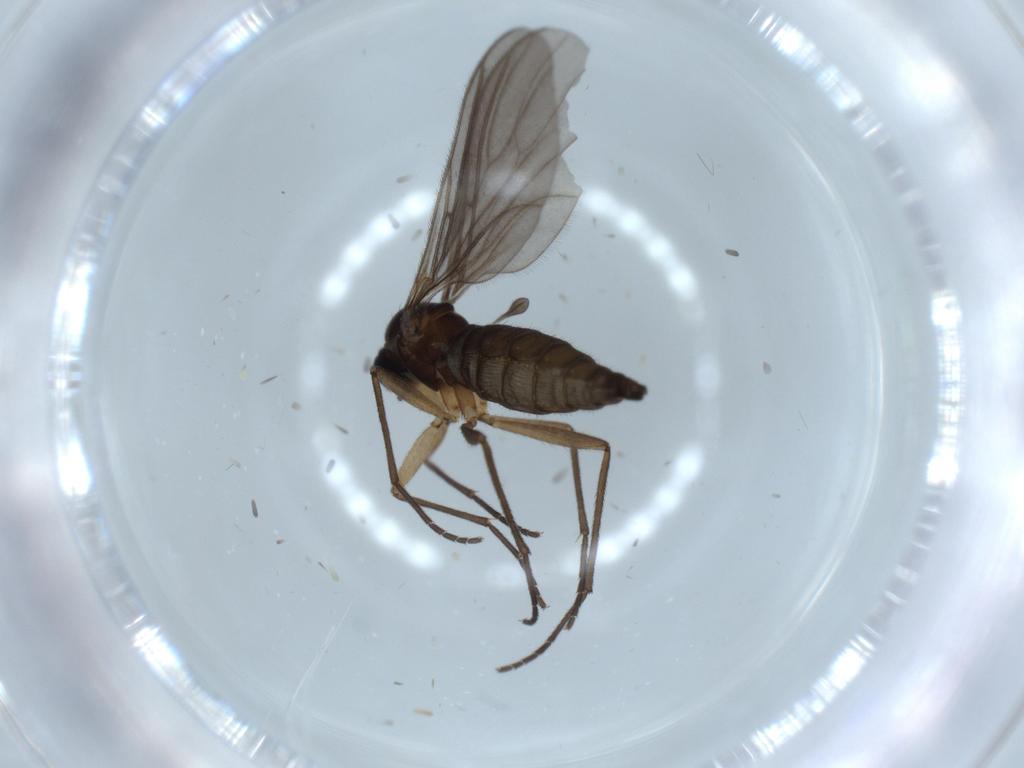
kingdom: Animalia
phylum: Arthropoda
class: Insecta
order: Diptera
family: Sciaridae
